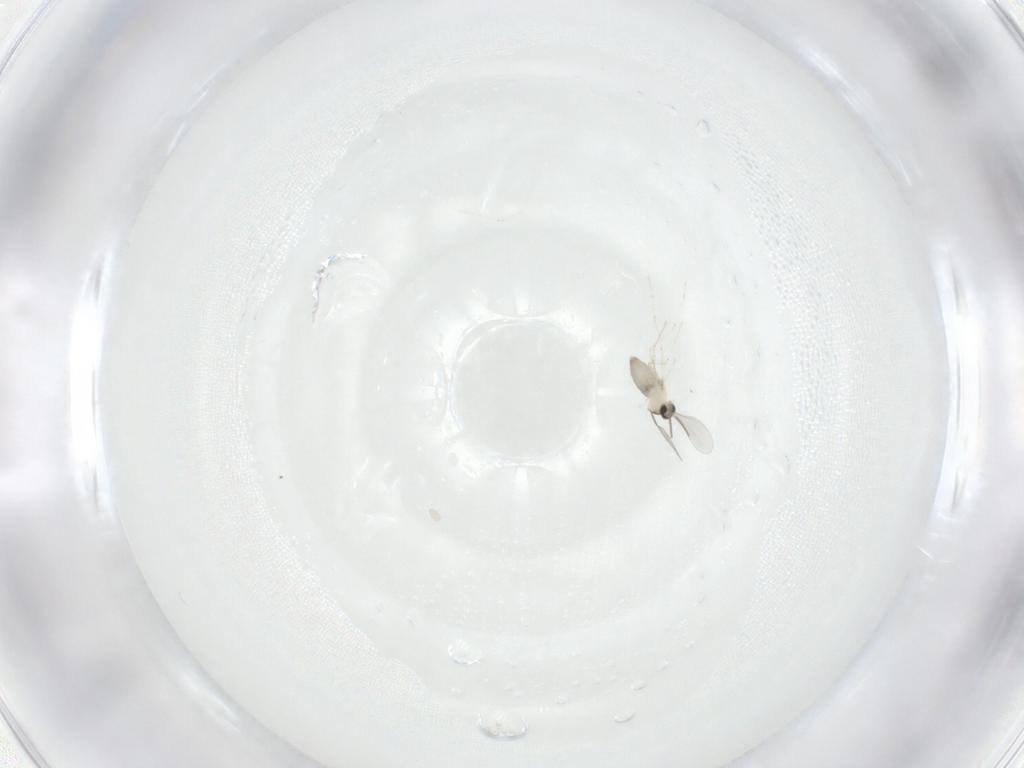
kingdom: Animalia
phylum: Arthropoda
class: Insecta
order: Diptera
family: Cecidomyiidae
